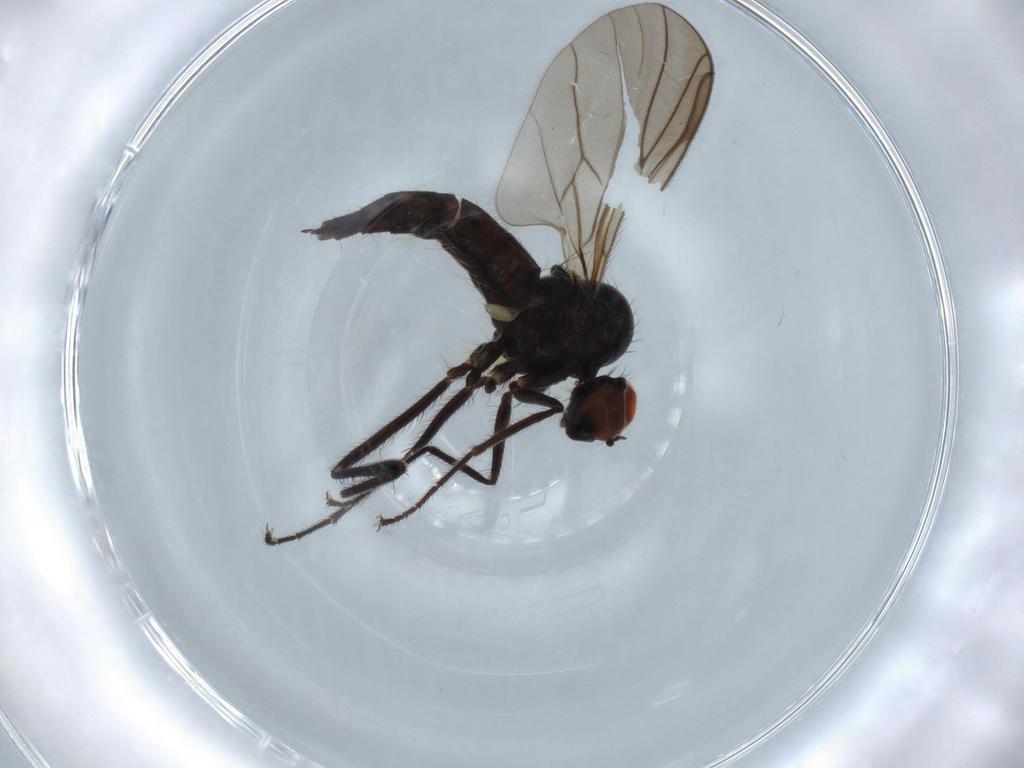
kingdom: Animalia
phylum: Arthropoda
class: Insecta
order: Diptera
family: Hybotidae
